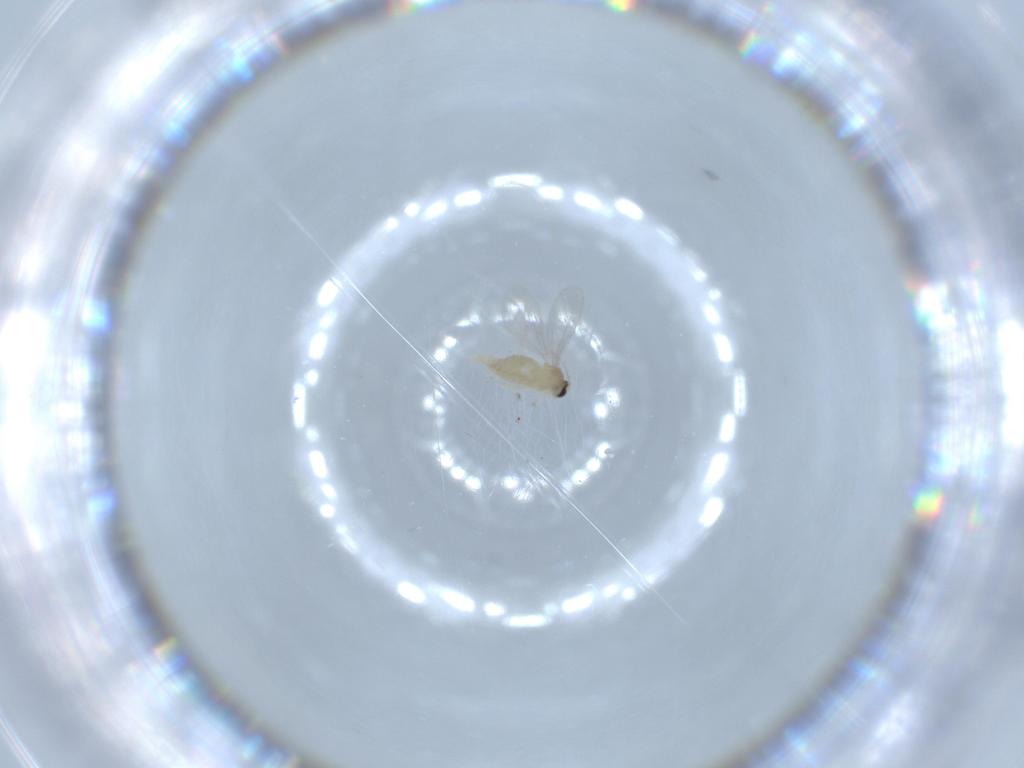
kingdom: Animalia
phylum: Arthropoda
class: Insecta
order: Diptera
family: Cecidomyiidae
